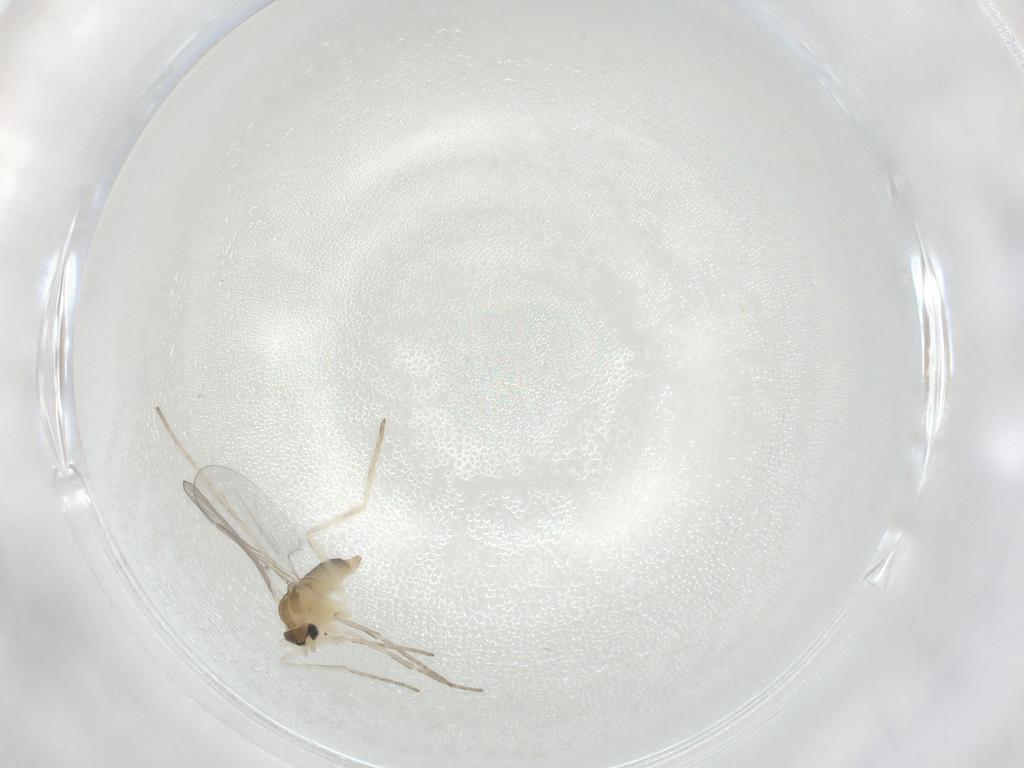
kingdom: Animalia
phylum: Arthropoda
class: Insecta
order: Diptera
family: Cecidomyiidae
